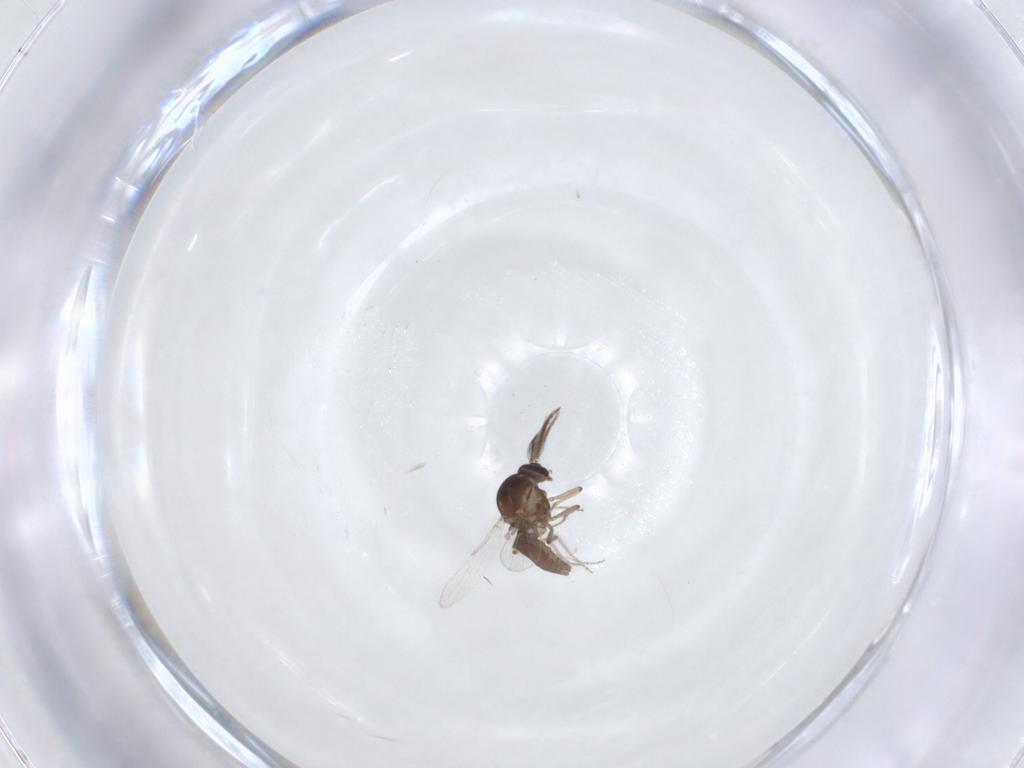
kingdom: Animalia
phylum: Arthropoda
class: Insecta
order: Diptera
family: Ceratopogonidae
